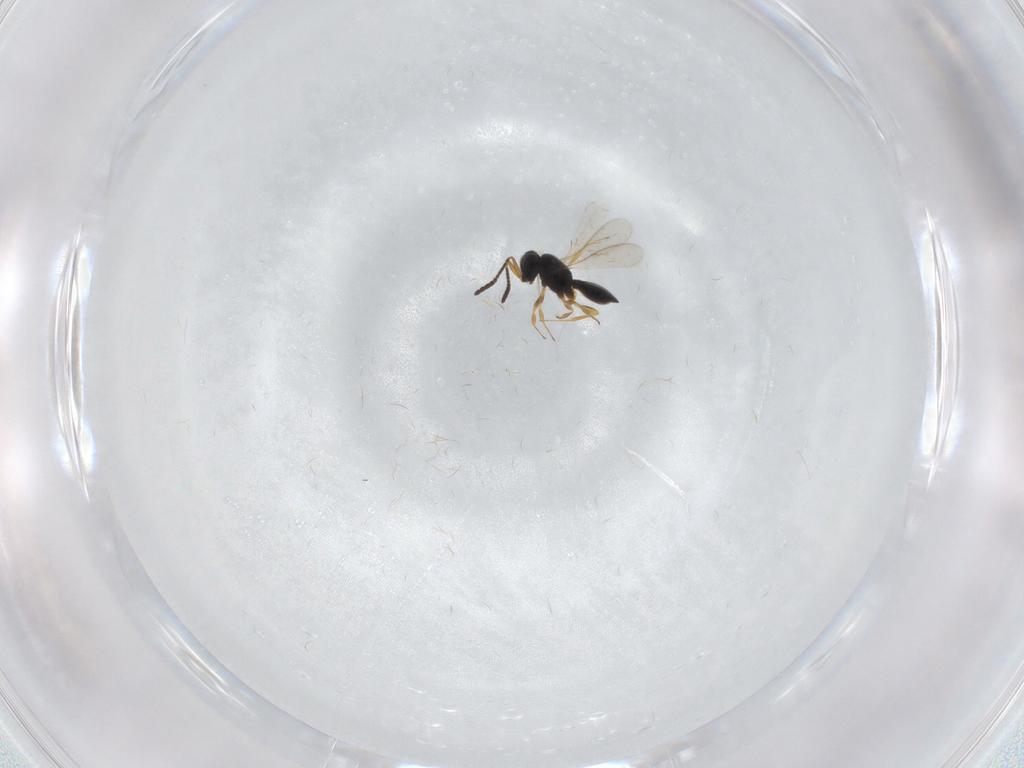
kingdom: Animalia
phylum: Arthropoda
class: Insecta
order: Hymenoptera
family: Scelionidae
